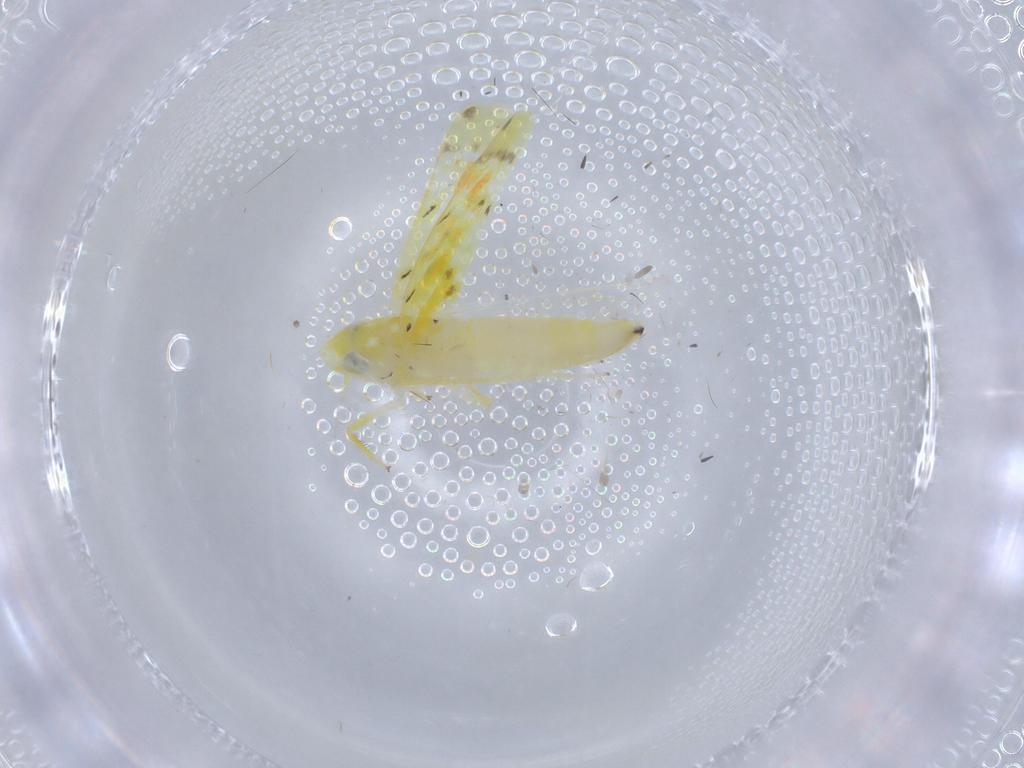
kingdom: Animalia
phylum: Arthropoda
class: Insecta
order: Hemiptera
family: Cicadellidae
